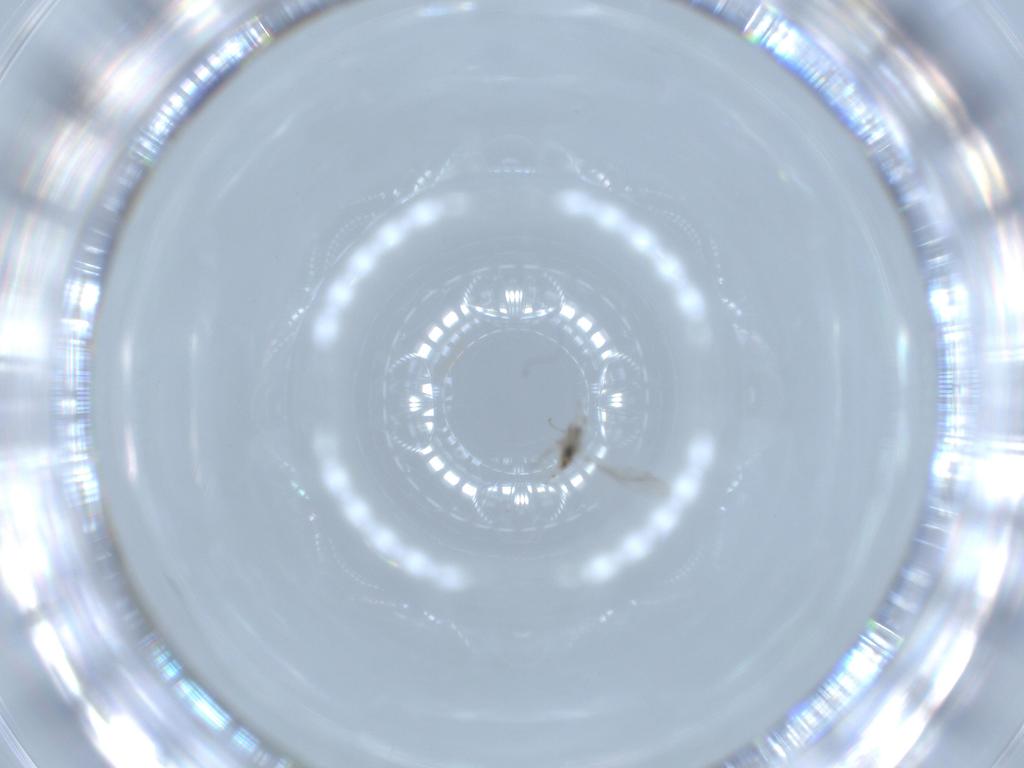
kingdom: Animalia
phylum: Arthropoda
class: Insecta
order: Diptera
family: Cecidomyiidae
